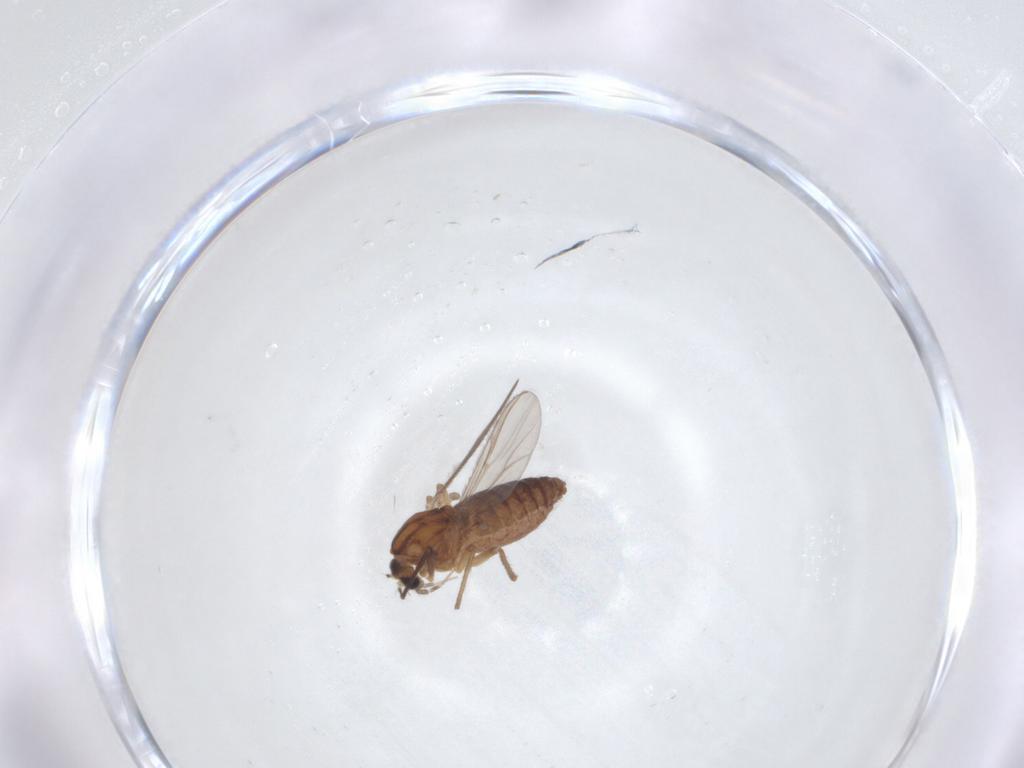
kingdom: Animalia
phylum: Arthropoda
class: Insecta
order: Diptera
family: Chironomidae
